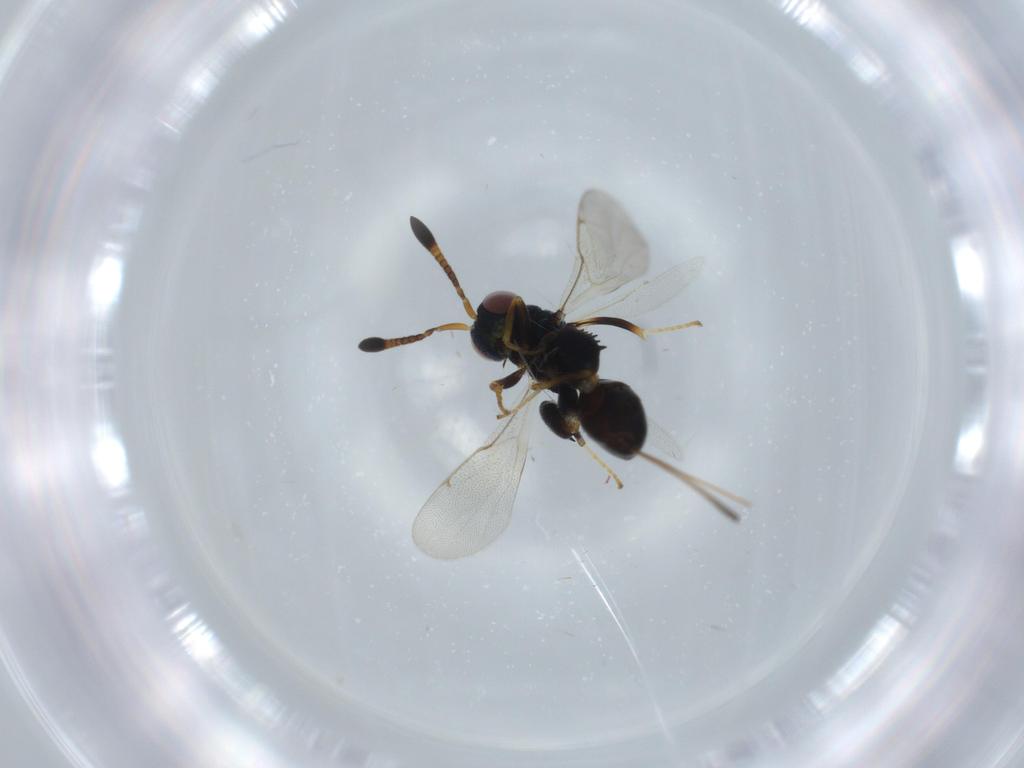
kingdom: Animalia
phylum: Arthropoda
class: Insecta
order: Hymenoptera
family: Torymidae
